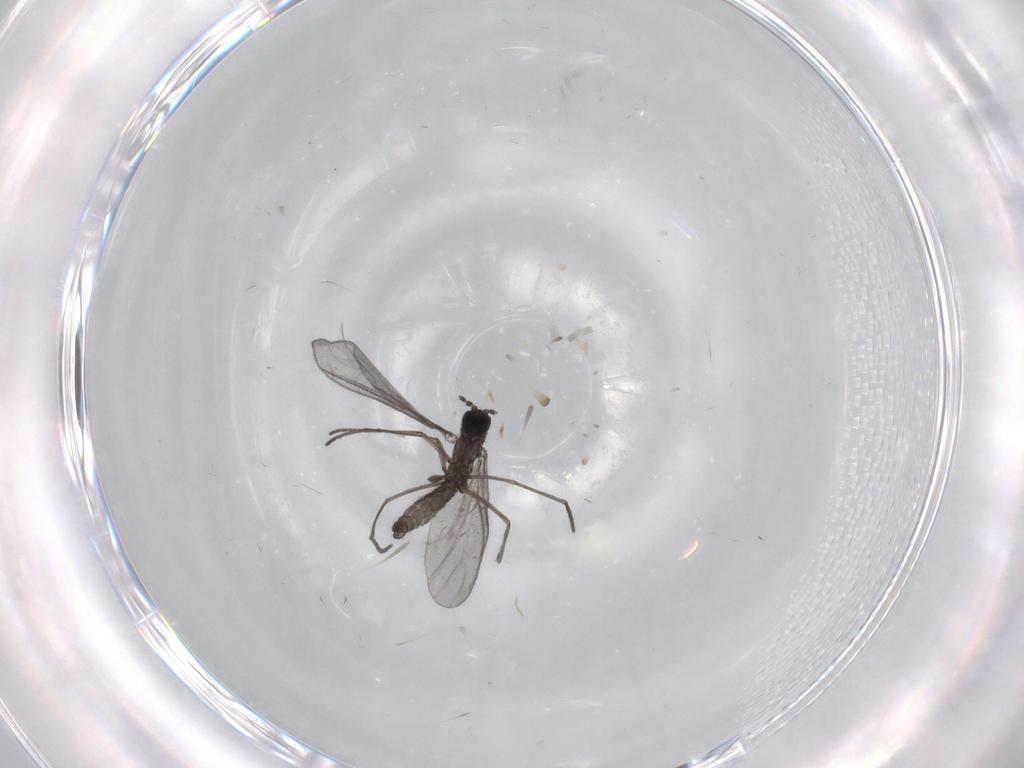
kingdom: Animalia
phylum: Arthropoda
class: Insecta
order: Diptera
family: Sciaridae
